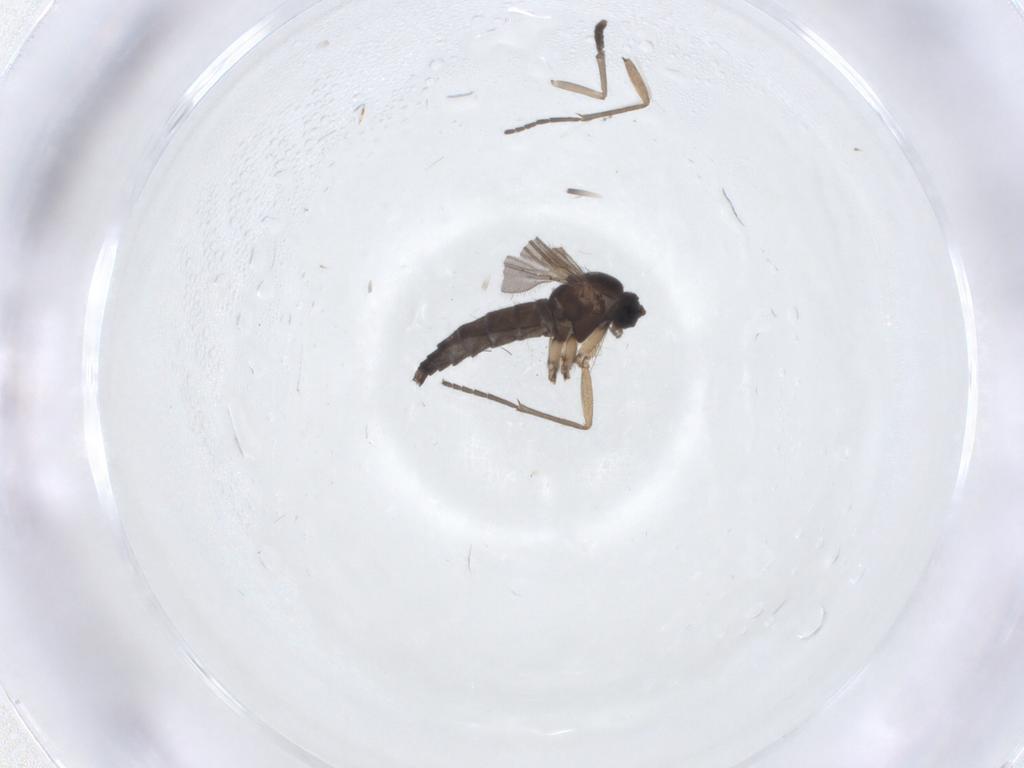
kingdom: Animalia
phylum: Arthropoda
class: Insecta
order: Diptera
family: Sciaridae
